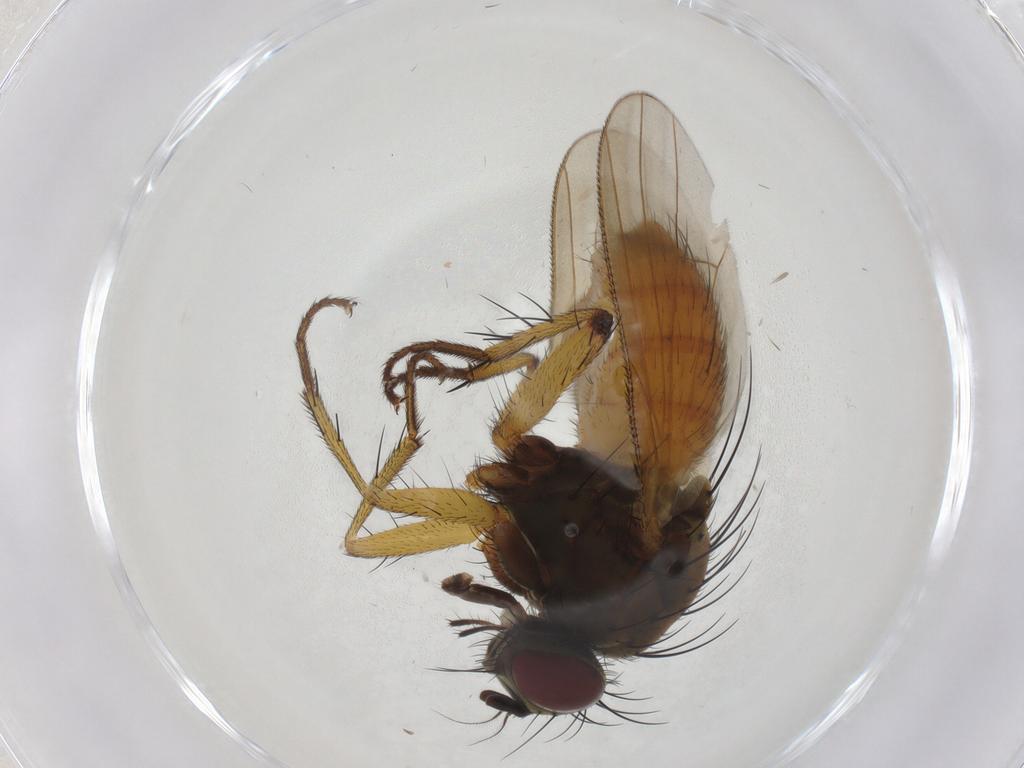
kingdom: Animalia
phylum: Arthropoda
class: Insecta
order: Diptera
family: Muscidae
